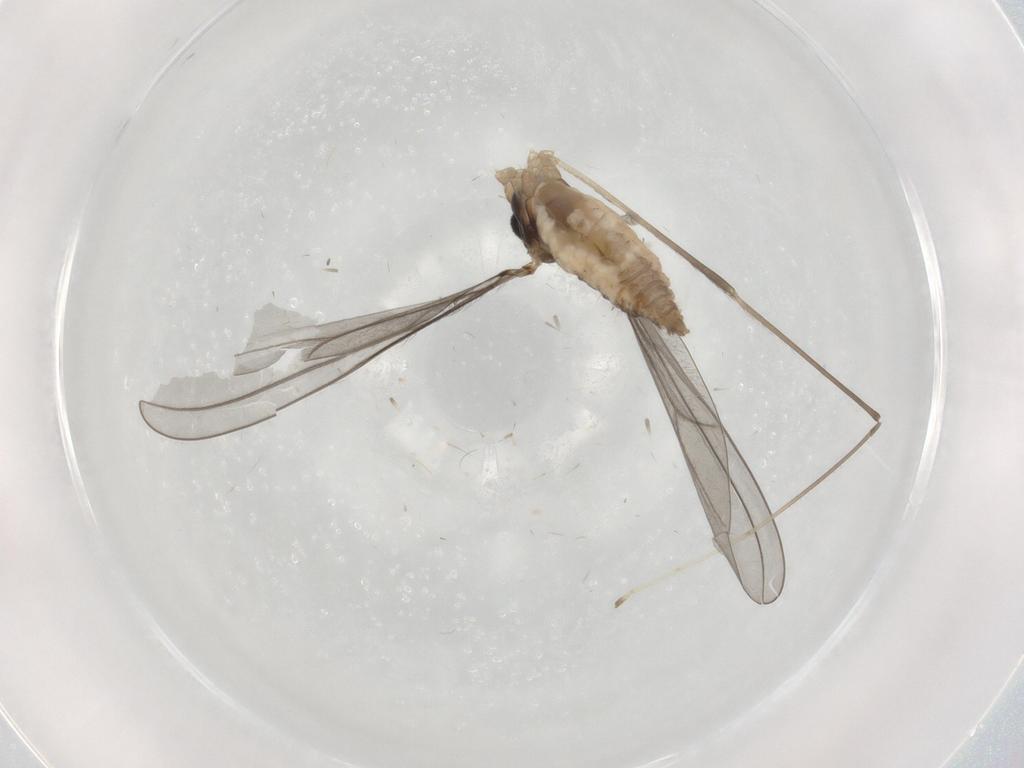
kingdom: Animalia
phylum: Arthropoda
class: Insecta
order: Diptera
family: Cecidomyiidae
